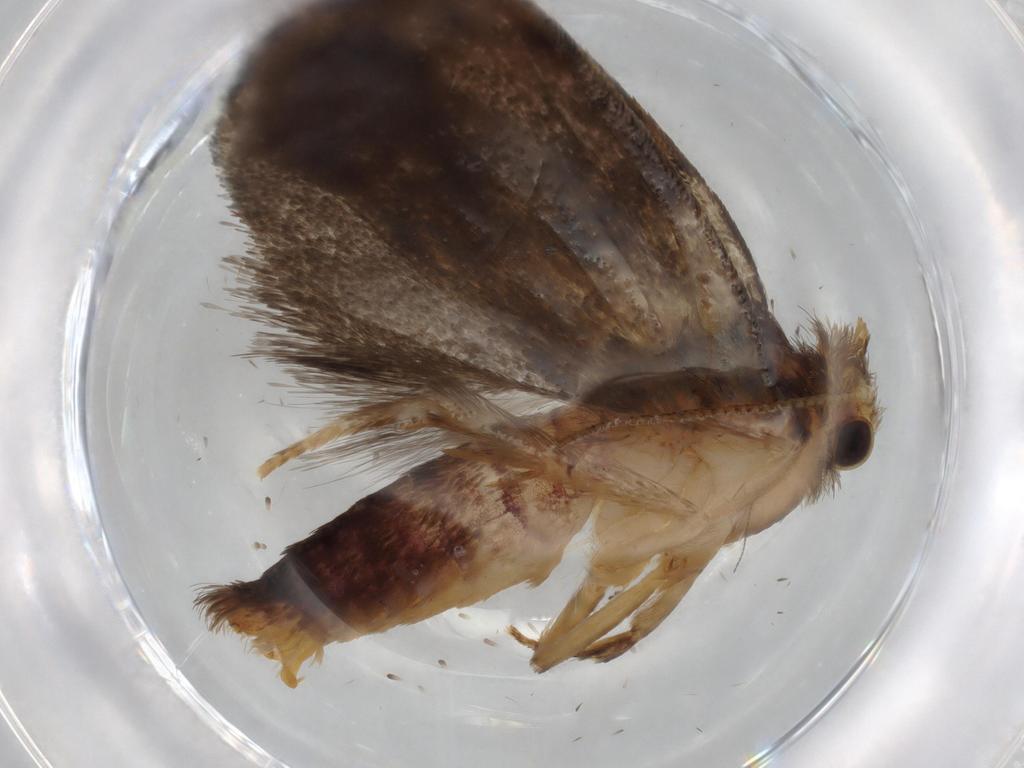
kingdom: Animalia
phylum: Arthropoda
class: Insecta
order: Lepidoptera
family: Tineidae
